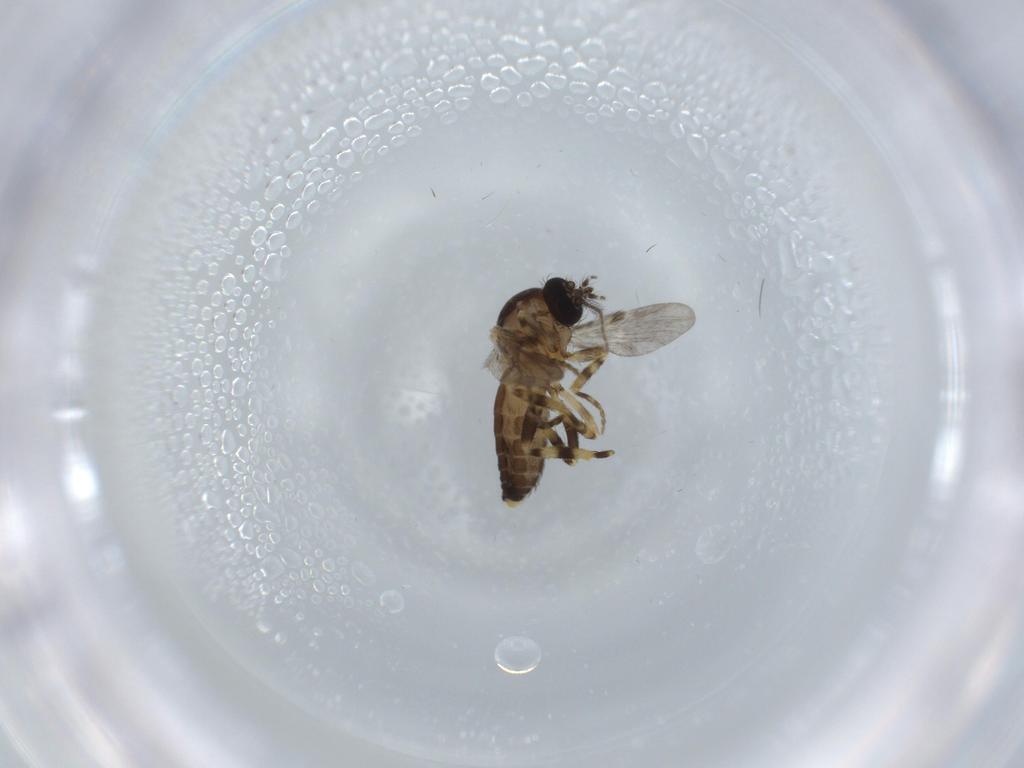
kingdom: Animalia
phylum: Arthropoda
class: Insecta
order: Diptera
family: Ceratopogonidae
